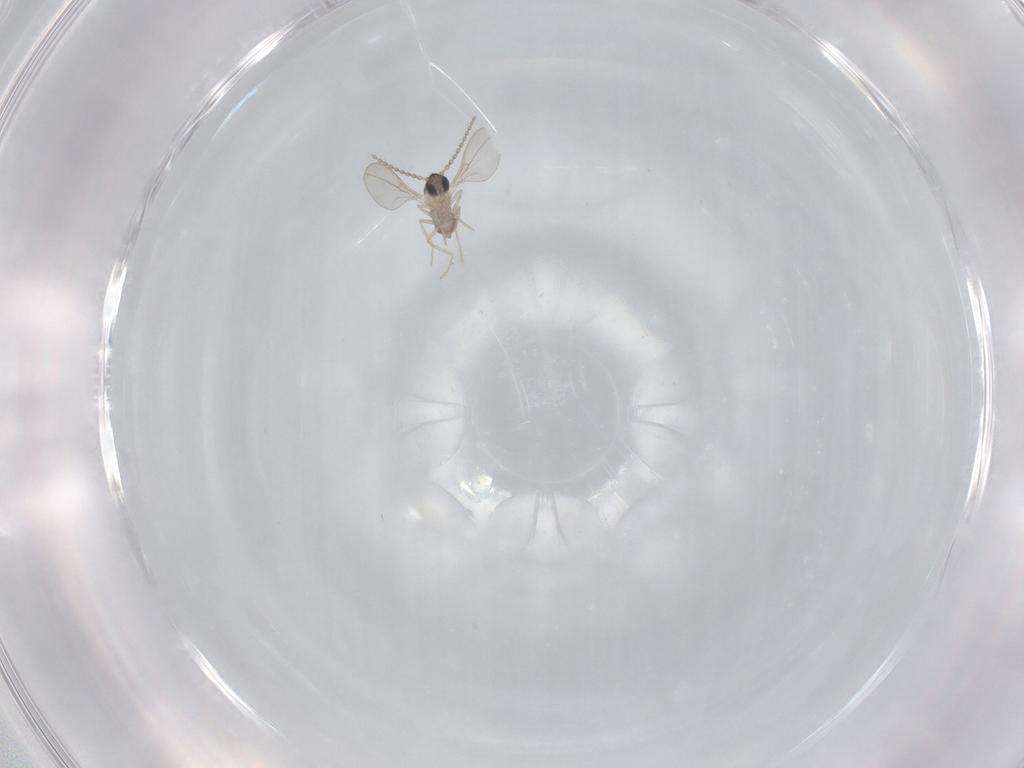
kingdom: Animalia
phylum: Arthropoda
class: Insecta
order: Diptera
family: Cecidomyiidae
